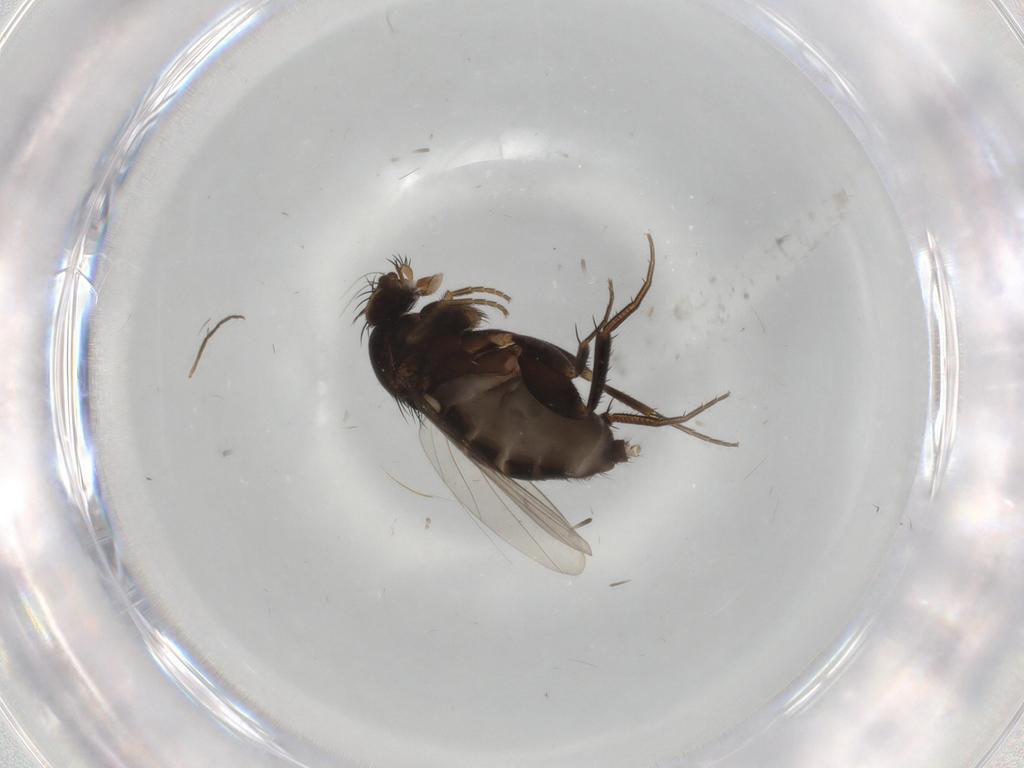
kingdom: Animalia
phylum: Arthropoda
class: Insecta
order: Diptera
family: Phoridae
